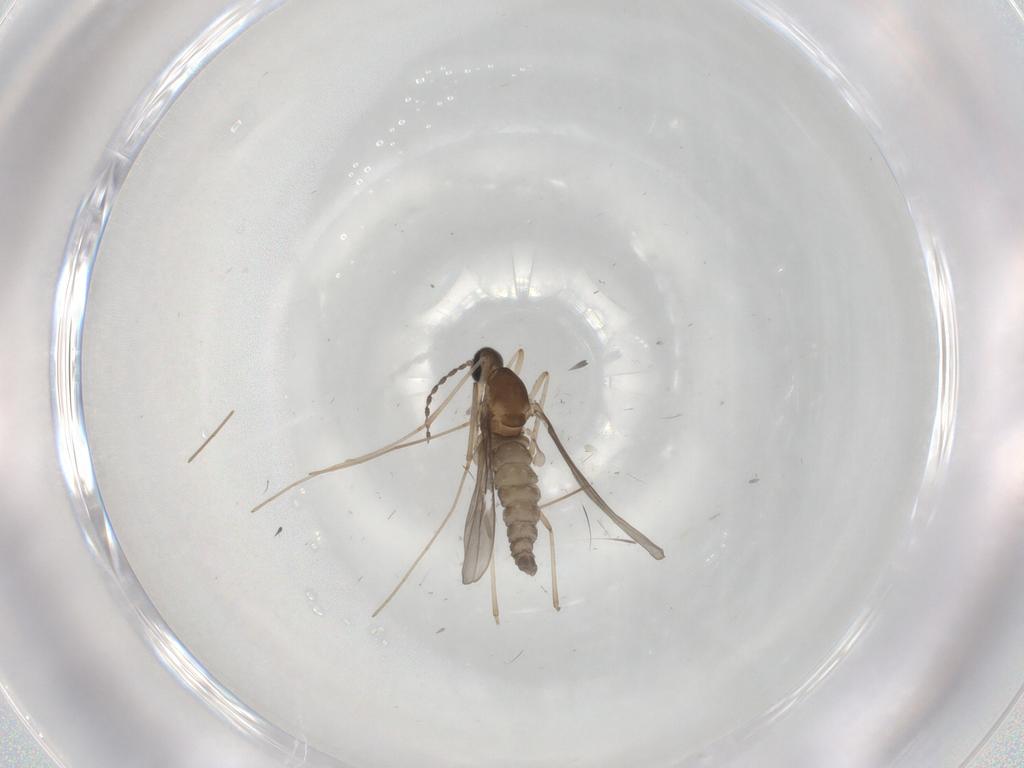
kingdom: Animalia
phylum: Arthropoda
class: Insecta
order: Diptera
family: Cecidomyiidae
